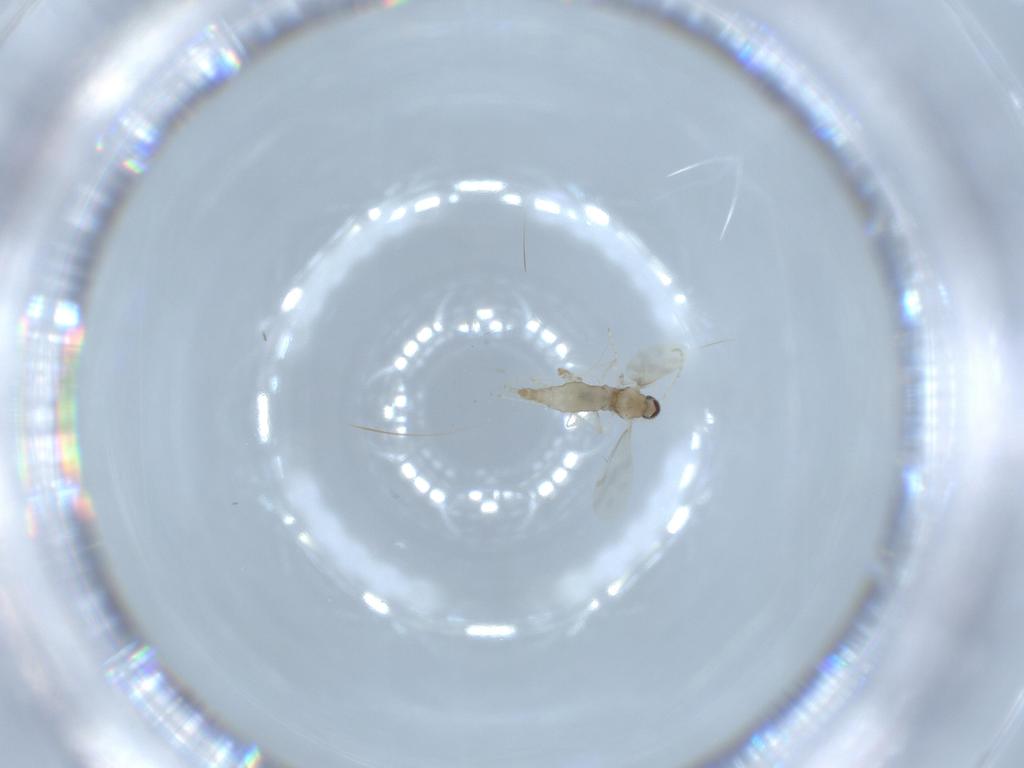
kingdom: Animalia
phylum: Arthropoda
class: Insecta
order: Diptera
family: Cecidomyiidae
